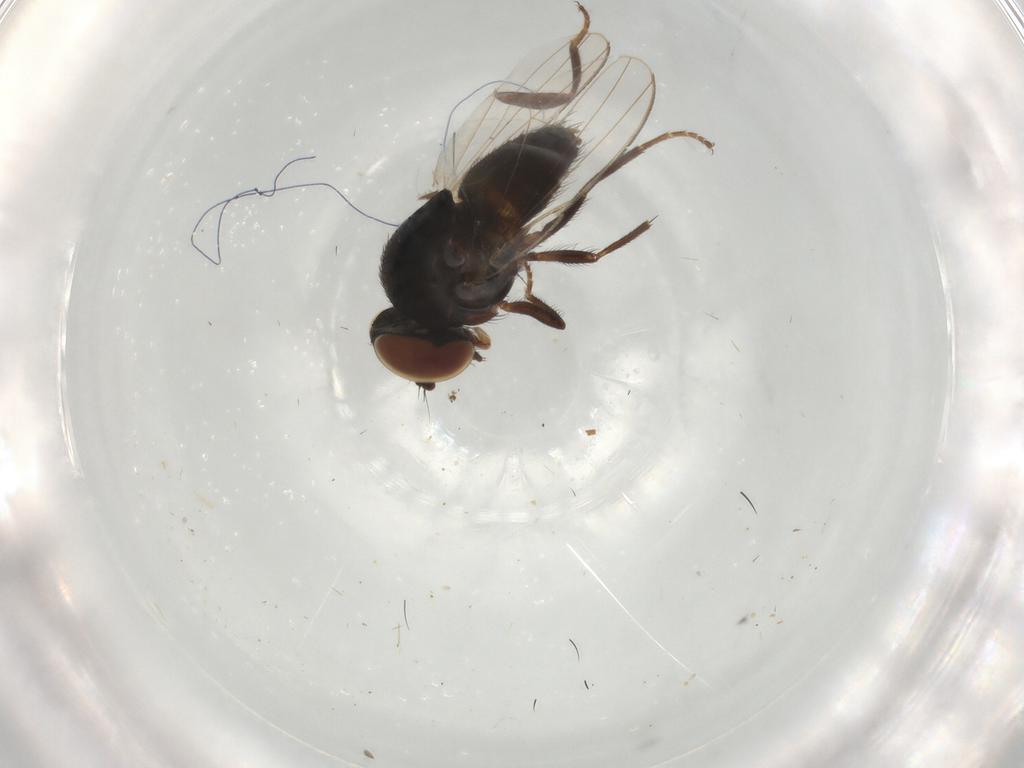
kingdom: Animalia
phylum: Arthropoda
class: Insecta
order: Diptera
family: Milichiidae
